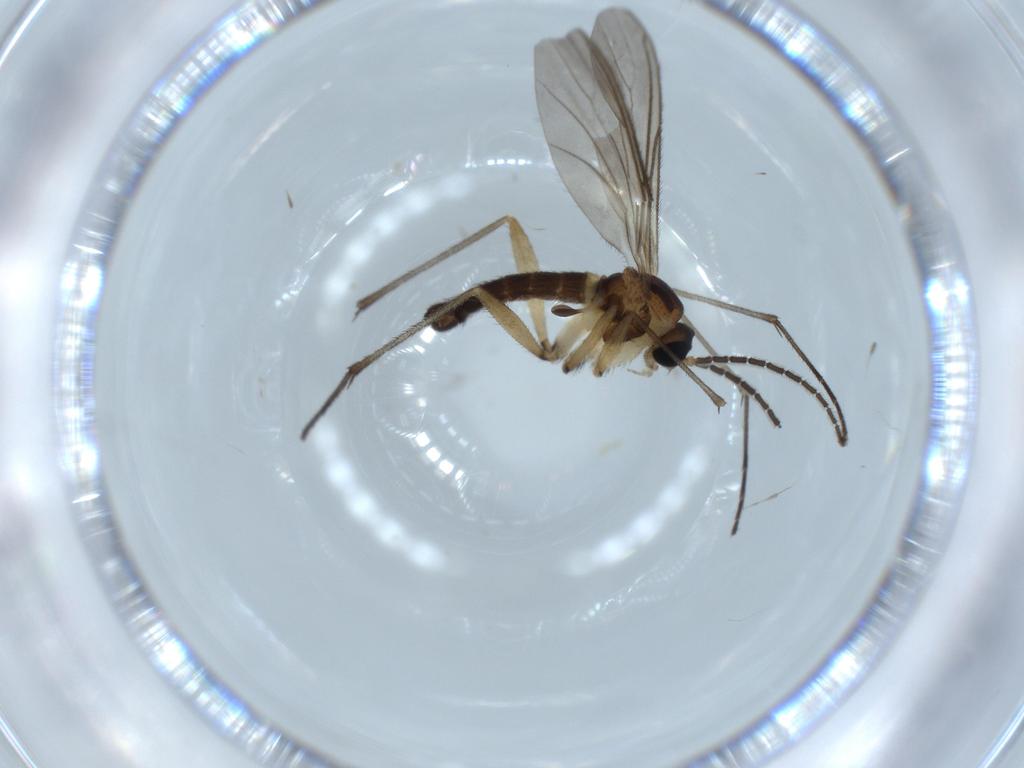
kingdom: Animalia
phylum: Arthropoda
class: Insecta
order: Diptera
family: Sciaridae
